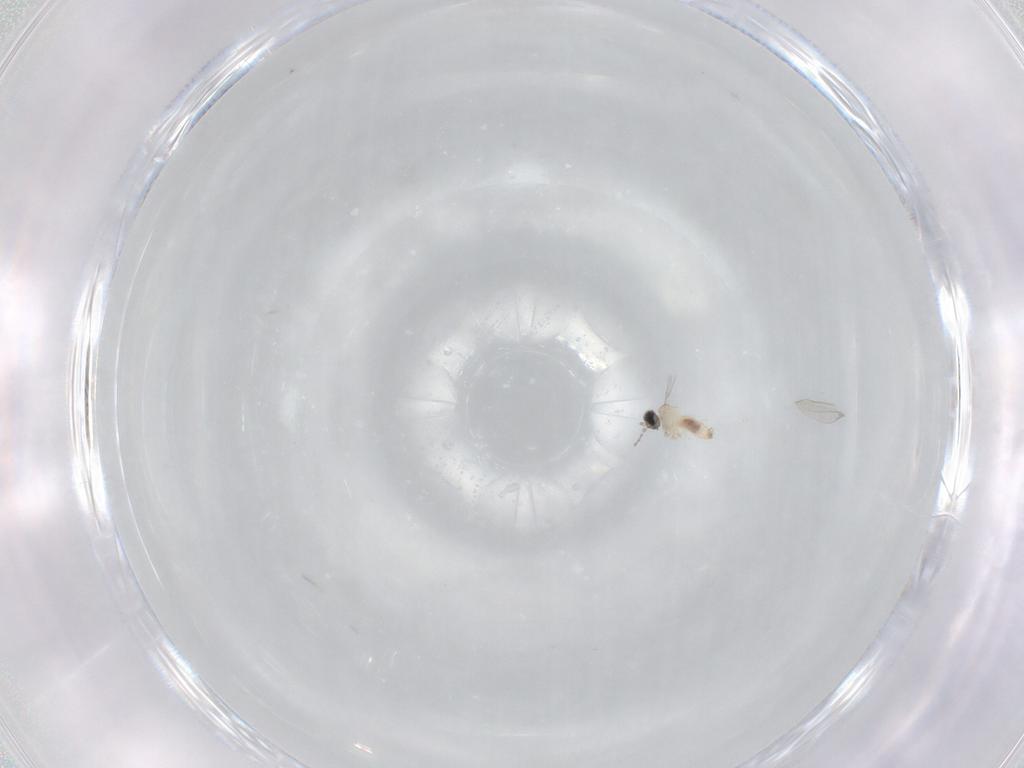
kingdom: Animalia
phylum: Arthropoda
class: Insecta
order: Diptera
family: Cecidomyiidae
